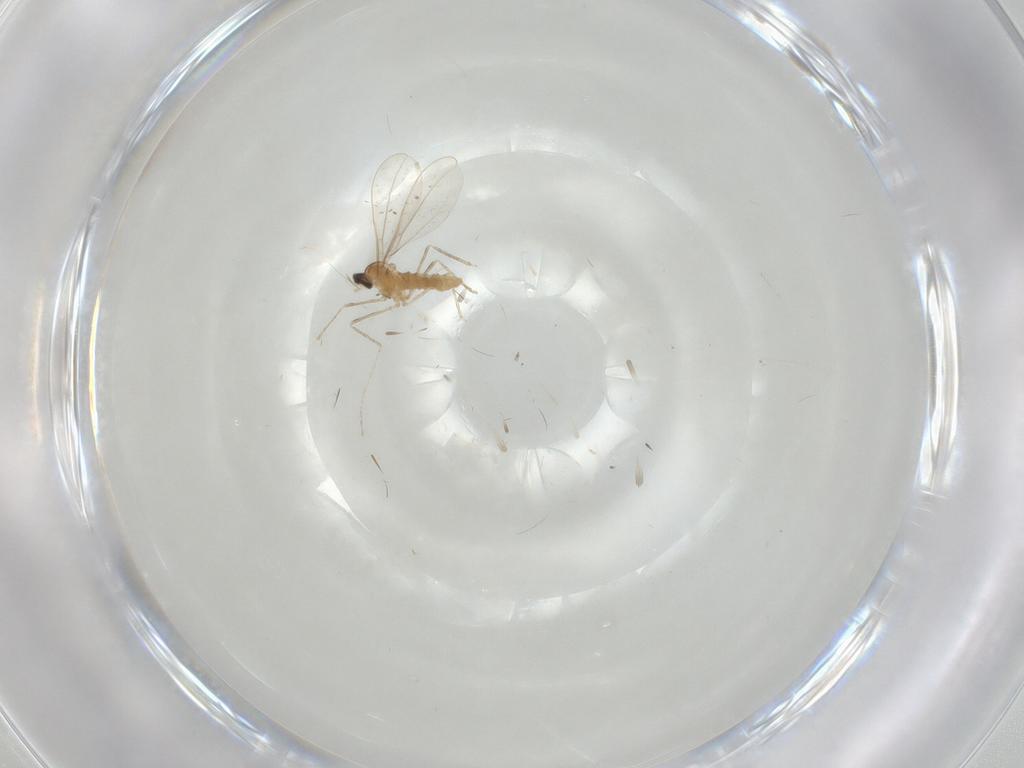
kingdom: Animalia
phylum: Arthropoda
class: Insecta
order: Diptera
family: Cecidomyiidae
